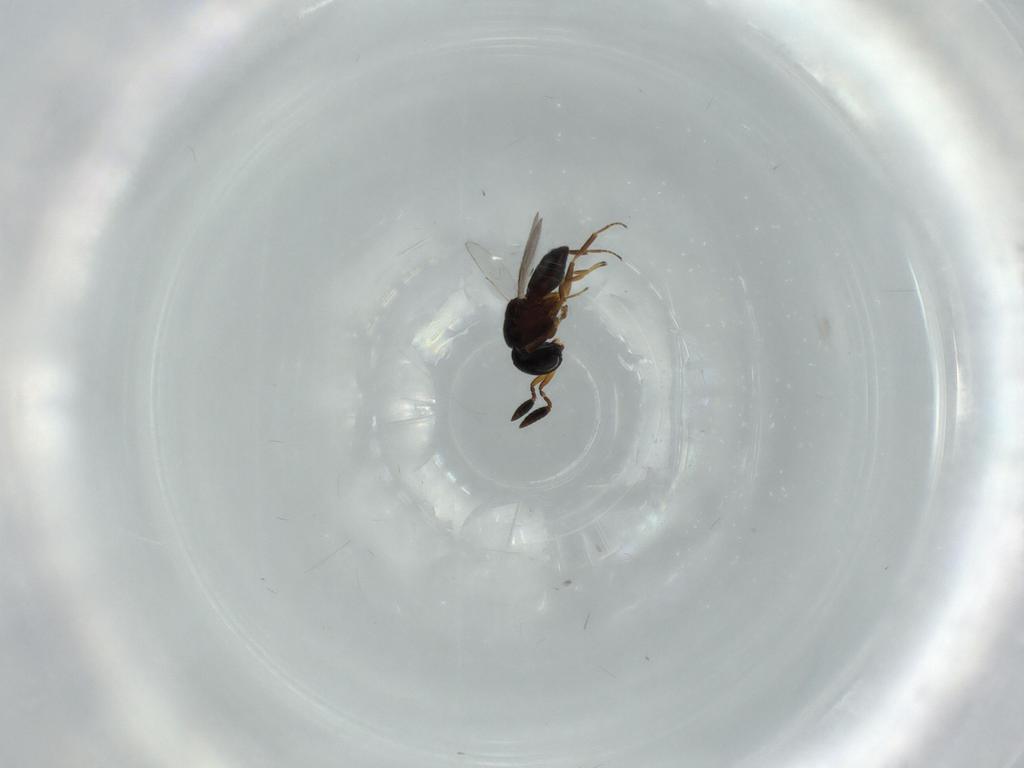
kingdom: Animalia
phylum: Arthropoda
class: Insecta
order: Hymenoptera
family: Scelionidae
